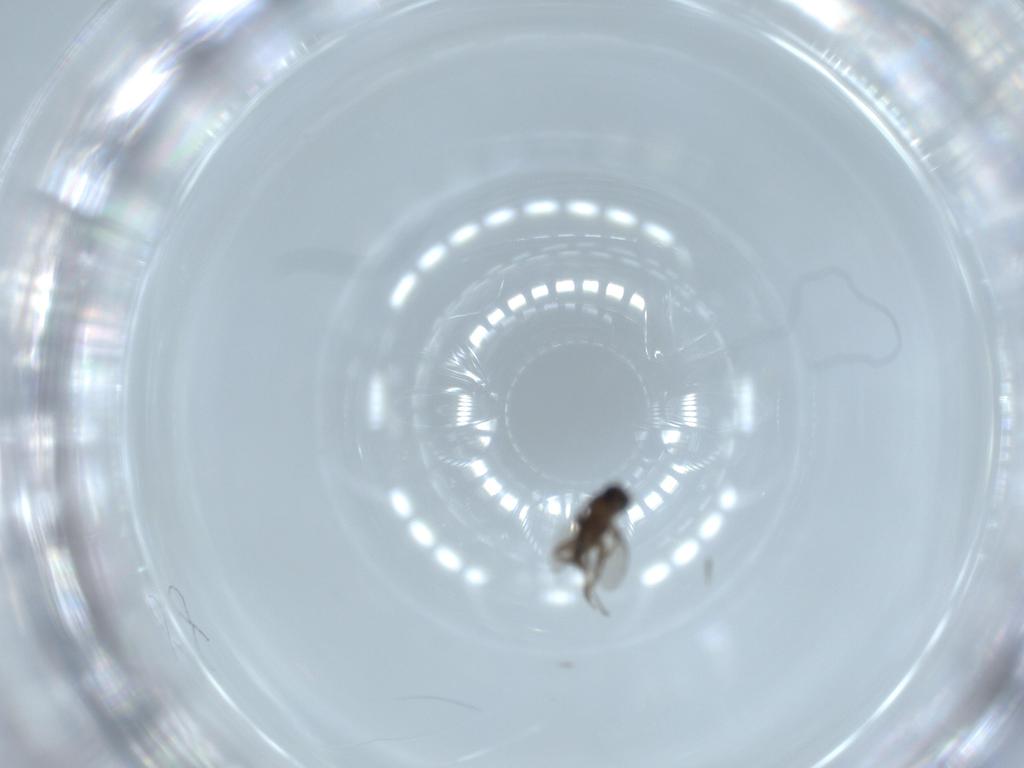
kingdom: Animalia
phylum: Arthropoda
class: Insecta
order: Diptera
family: Phoridae
